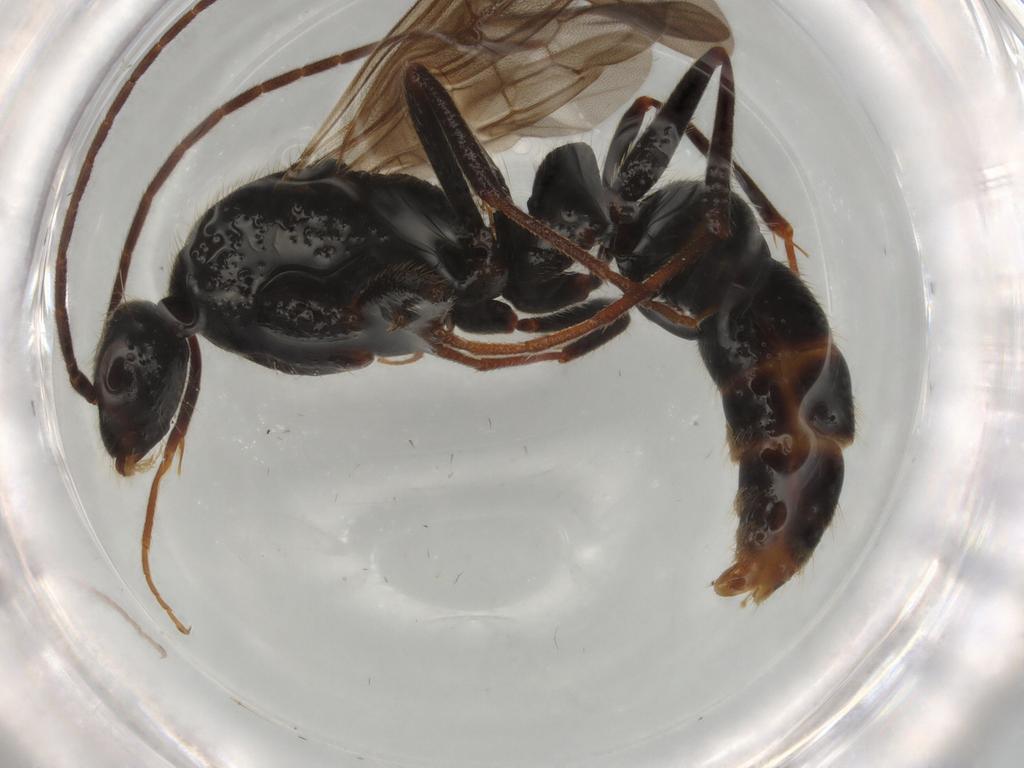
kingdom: Animalia
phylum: Arthropoda
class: Insecta
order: Hymenoptera
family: Formicidae
